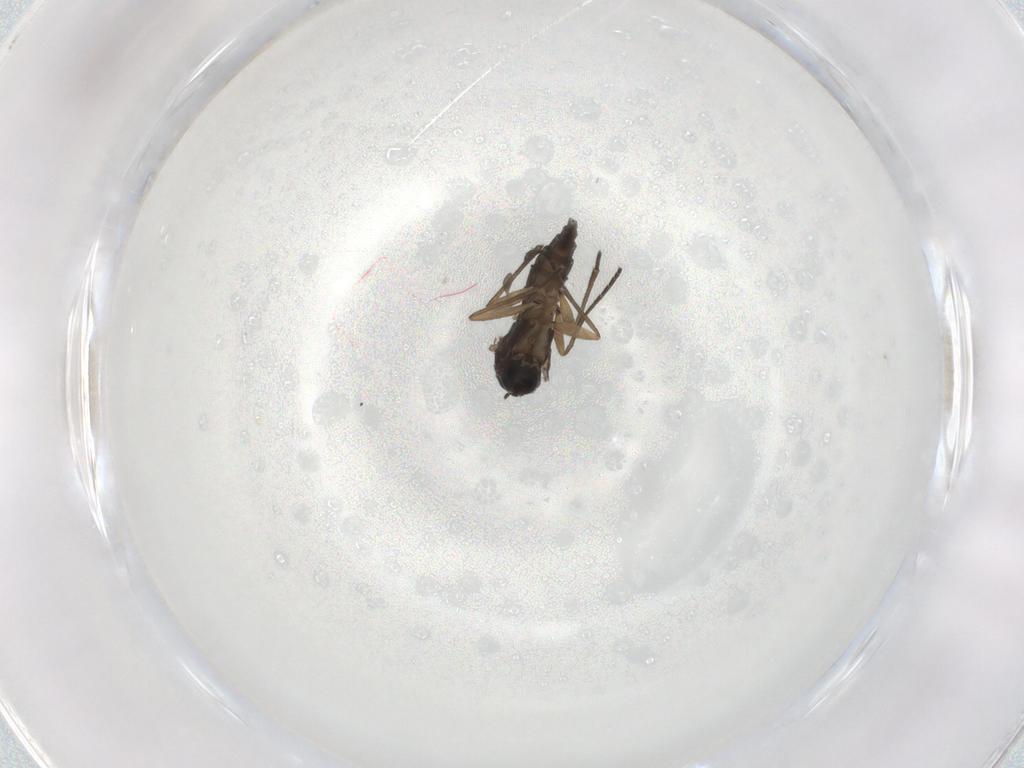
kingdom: Animalia
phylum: Arthropoda
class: Insecta
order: Diptera
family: Sciaridae
